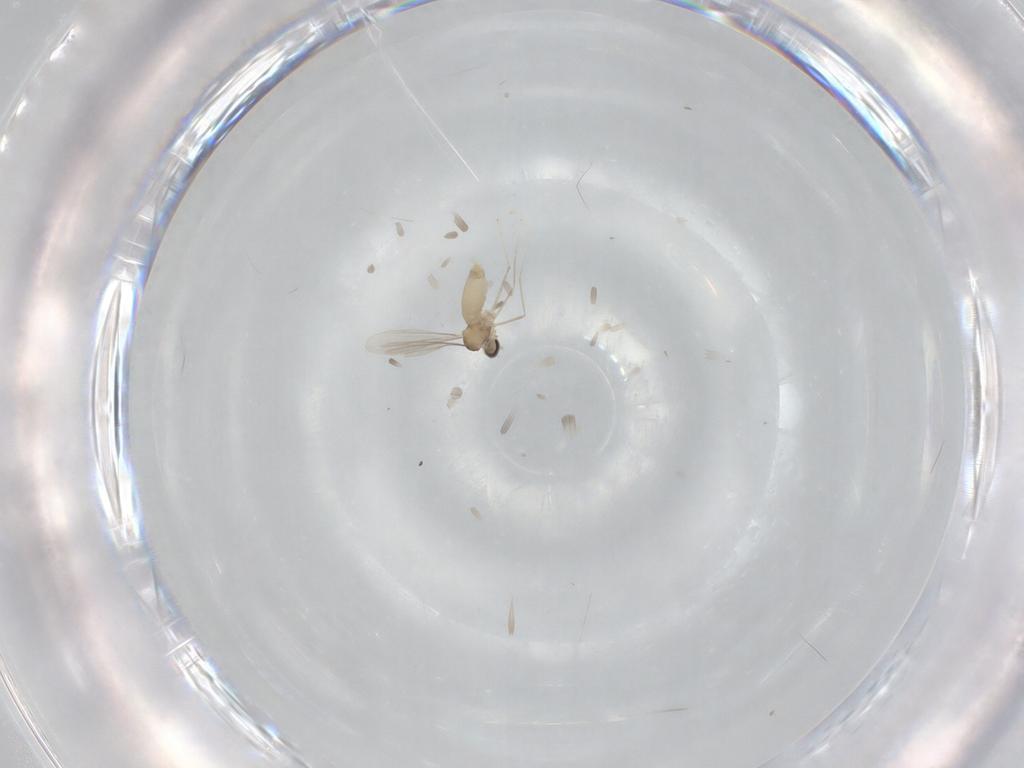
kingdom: Animalia
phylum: Arthropoda
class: Insecta
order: Diptera
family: Cecidomyiidae
